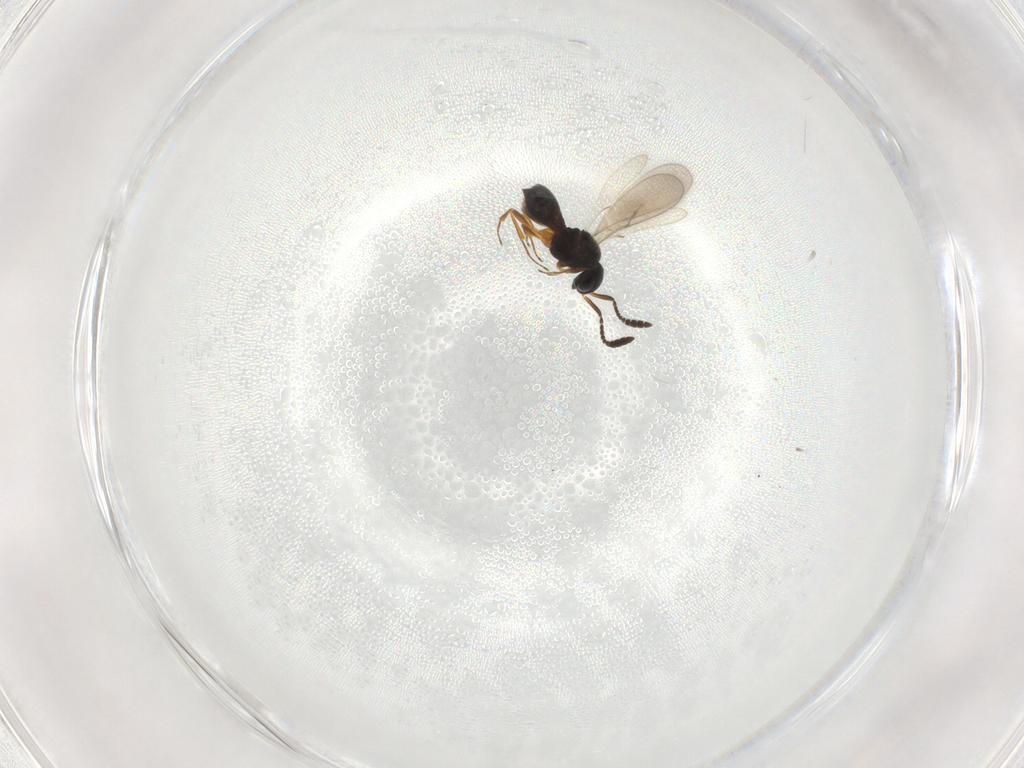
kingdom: Animalia
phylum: Arthropoda
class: Insecta
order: Hymenoptera
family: Scelionidae
